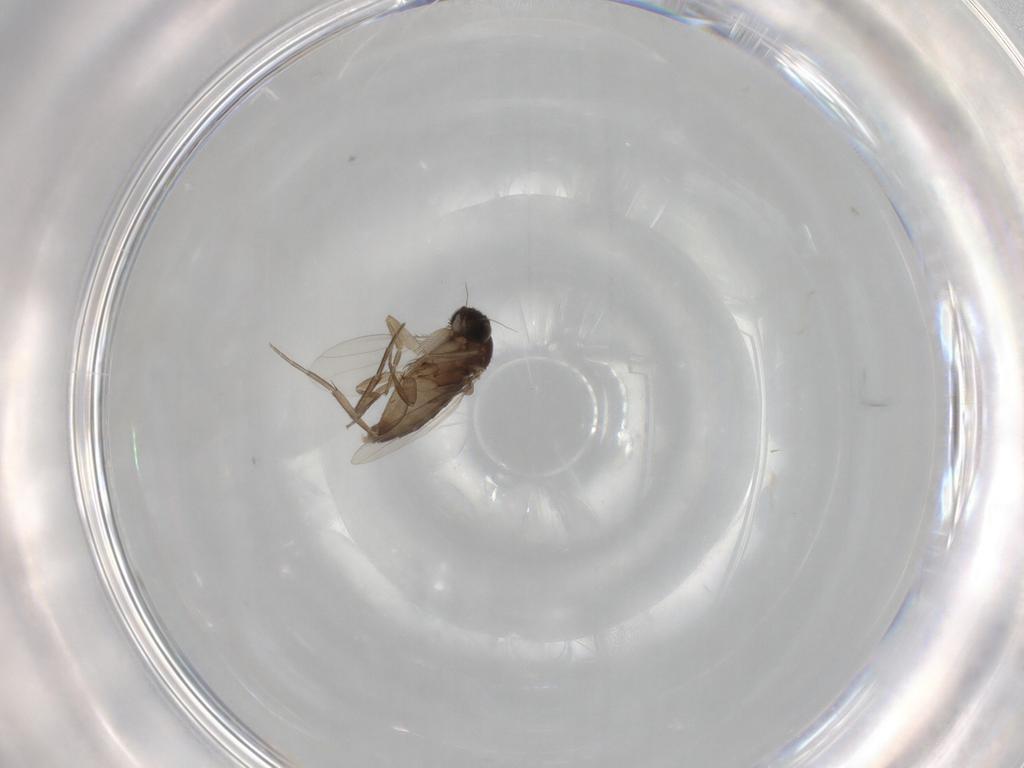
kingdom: Animalia
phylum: Arthropoda
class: Insecta
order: Diptera
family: Phoridae
